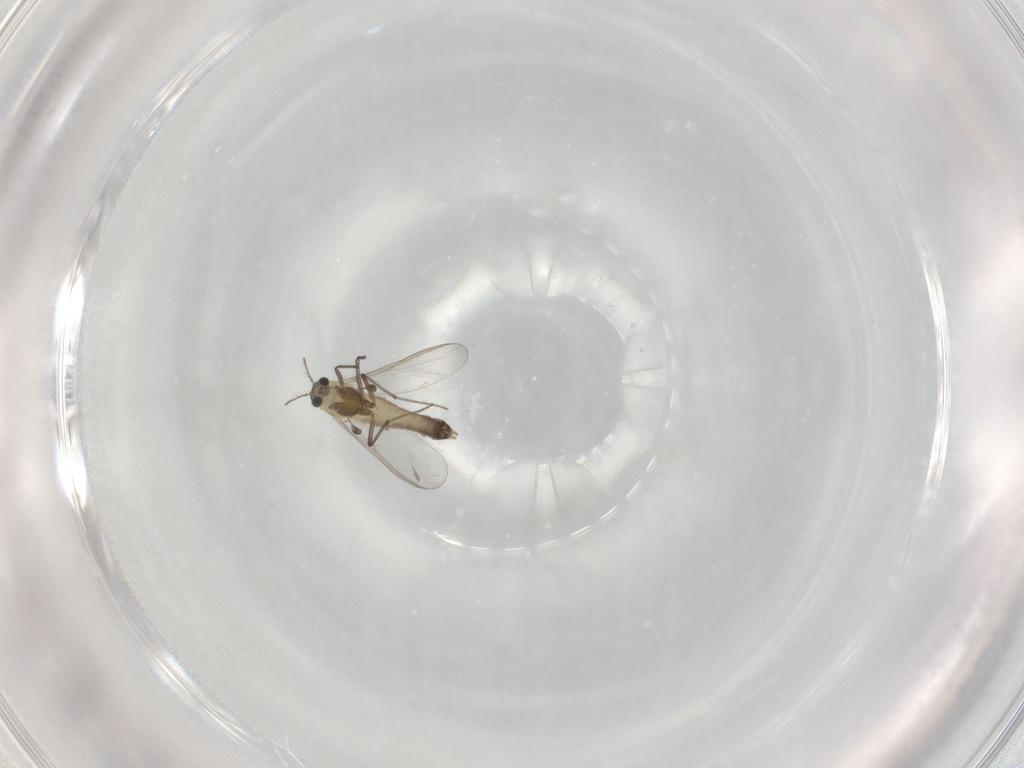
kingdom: Animalia
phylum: Arthropoda
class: Insecta
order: Diptera
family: Chironomidae
